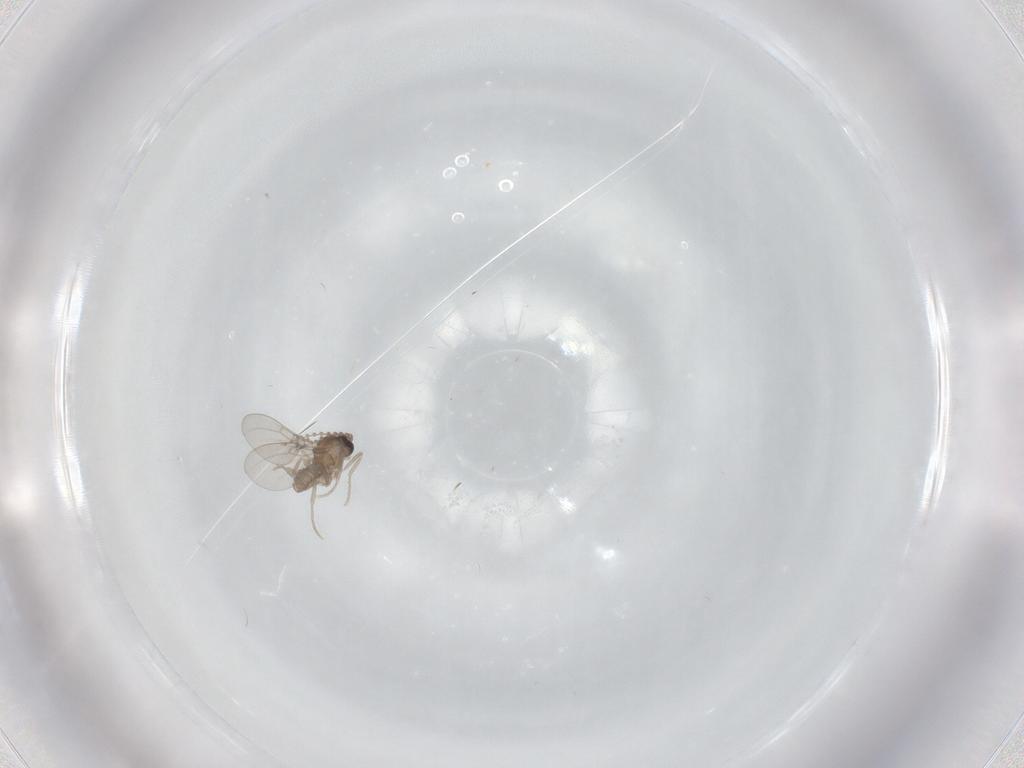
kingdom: Animalia
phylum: Arthropoda
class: Insecta
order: Diptera
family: Cecidomyiidae
